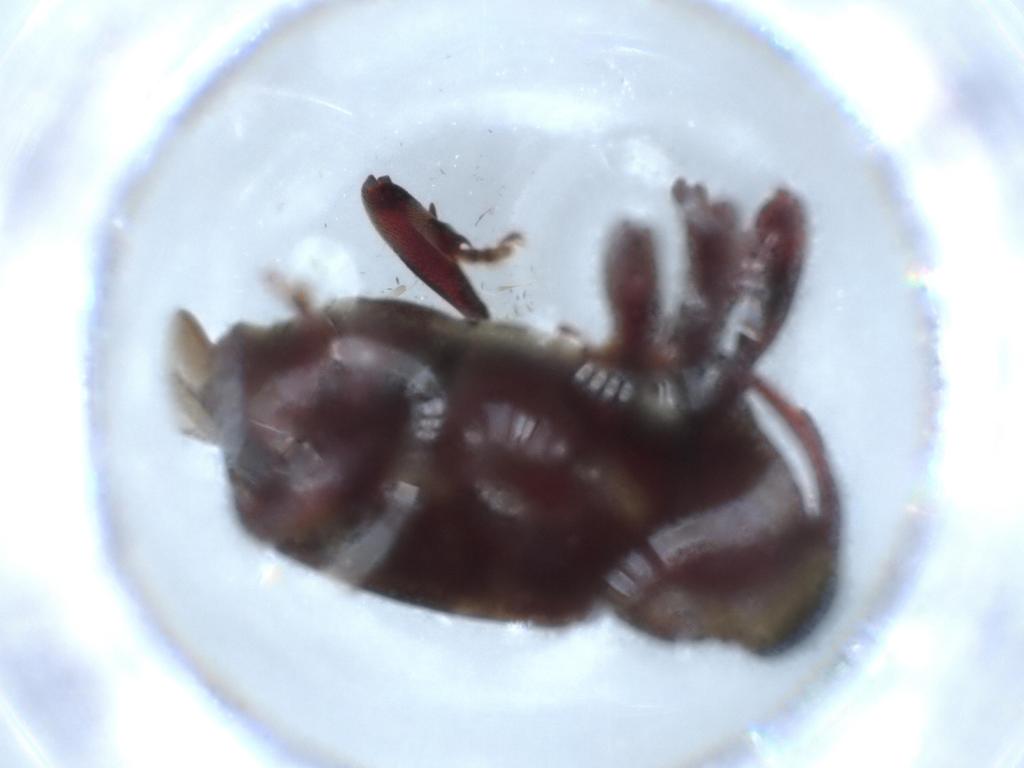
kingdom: Animalia
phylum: Arthropoda
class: Insecta
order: Coleoptera
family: Curculionidae
